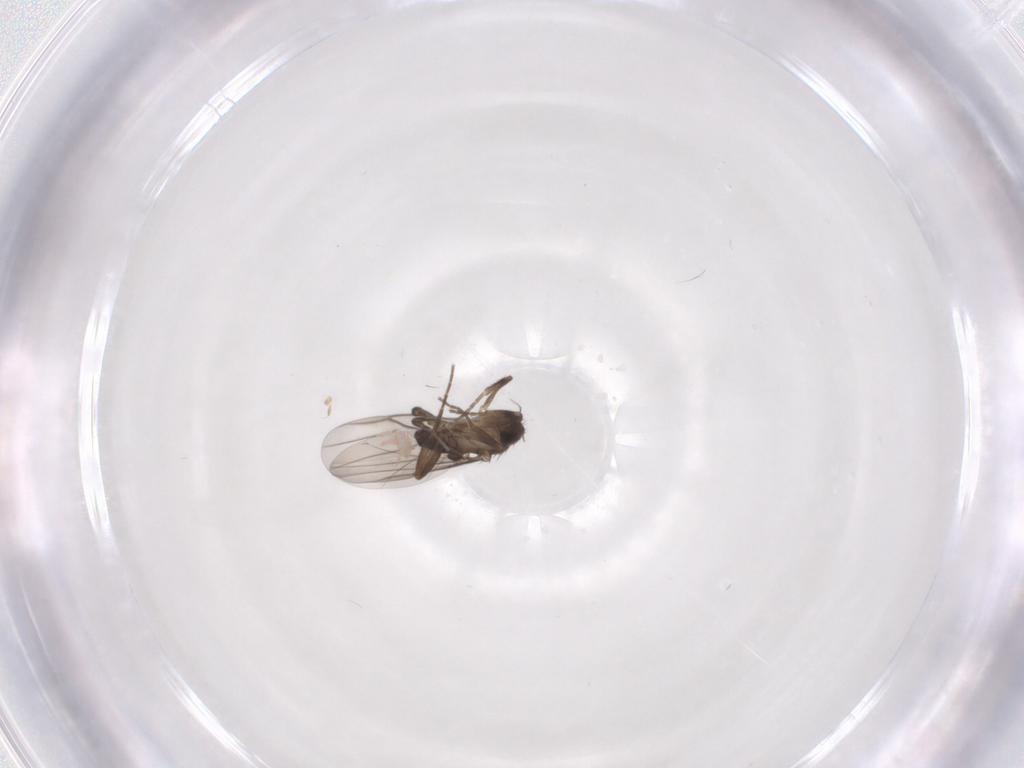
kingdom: Animalia
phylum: Arthropoda
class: Insecta
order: Diptera
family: Phoridae
